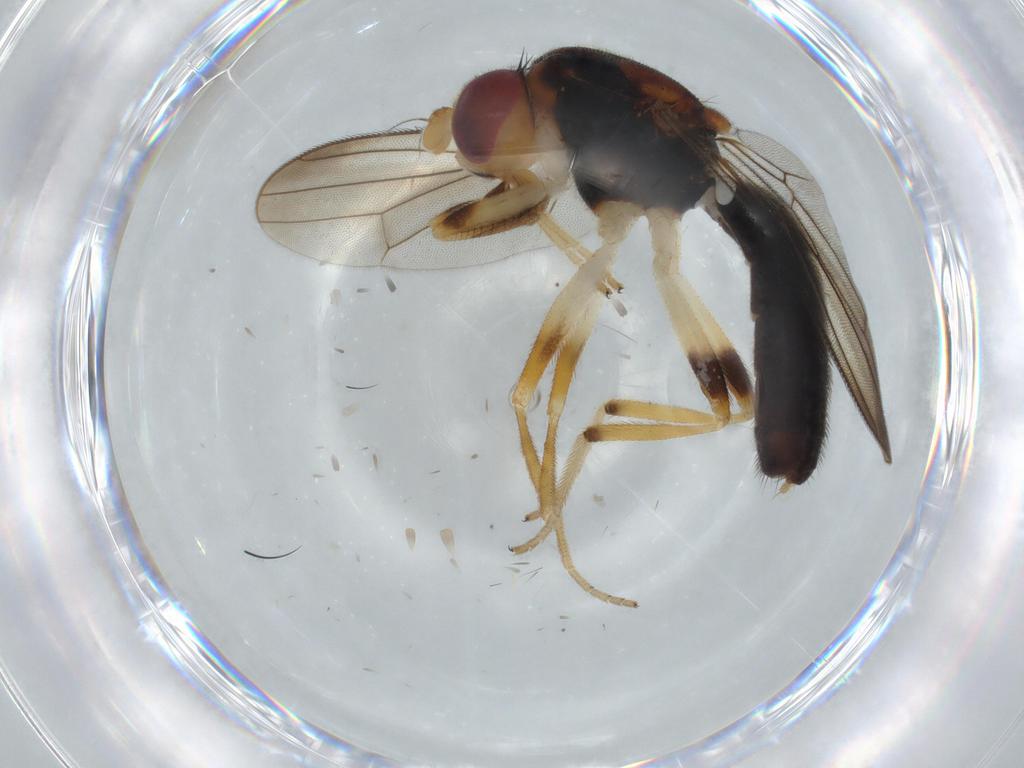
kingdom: Animalia
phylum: Arthropoda
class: Insecta
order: Diptera
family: Psilidae
